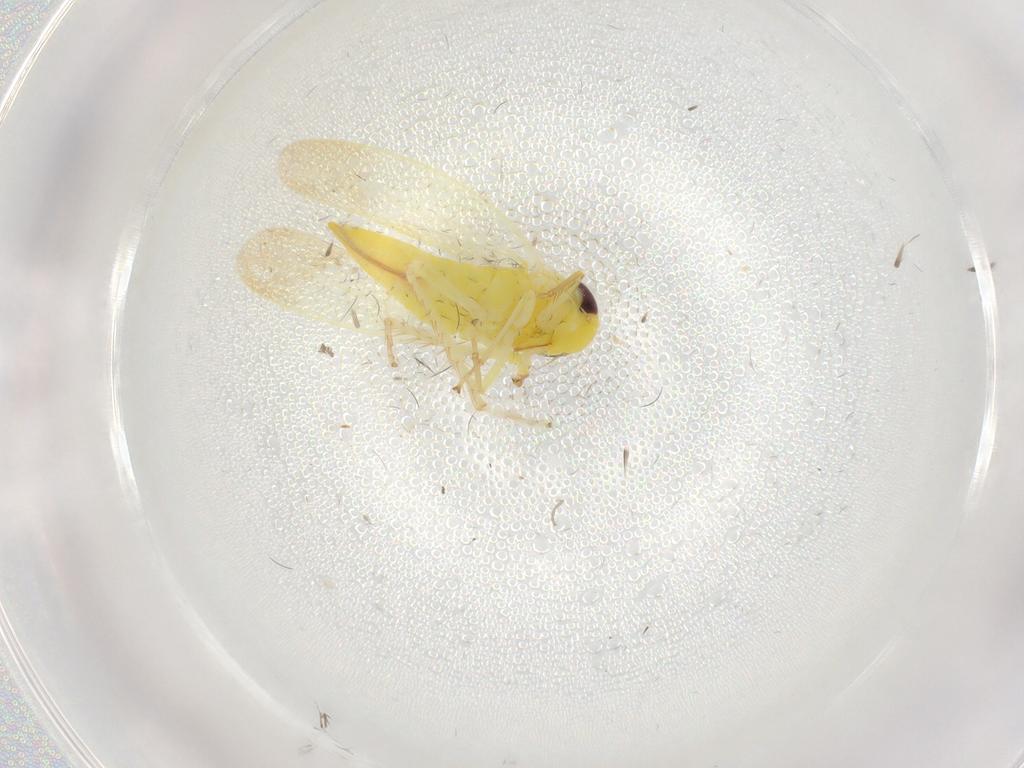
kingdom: Animalia
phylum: Arthropoda
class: Insecta
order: Hemiptera
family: Cicadellidae
